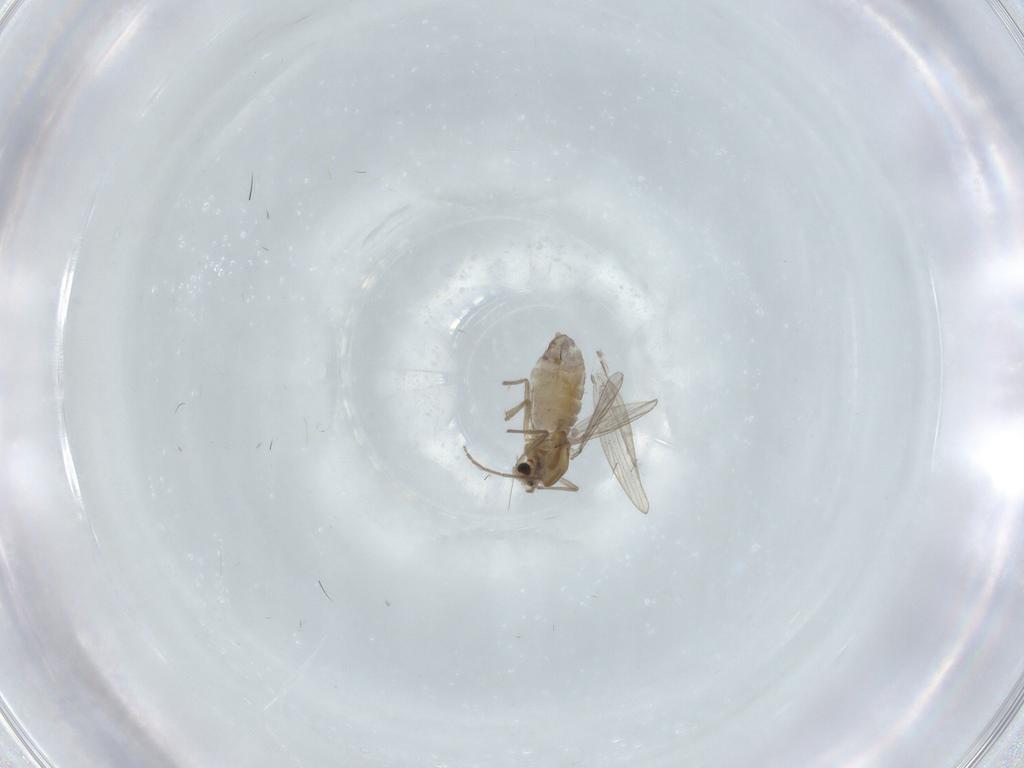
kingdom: Animalia
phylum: Arthropoda
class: Insecta
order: Diptera
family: Chironomidae
